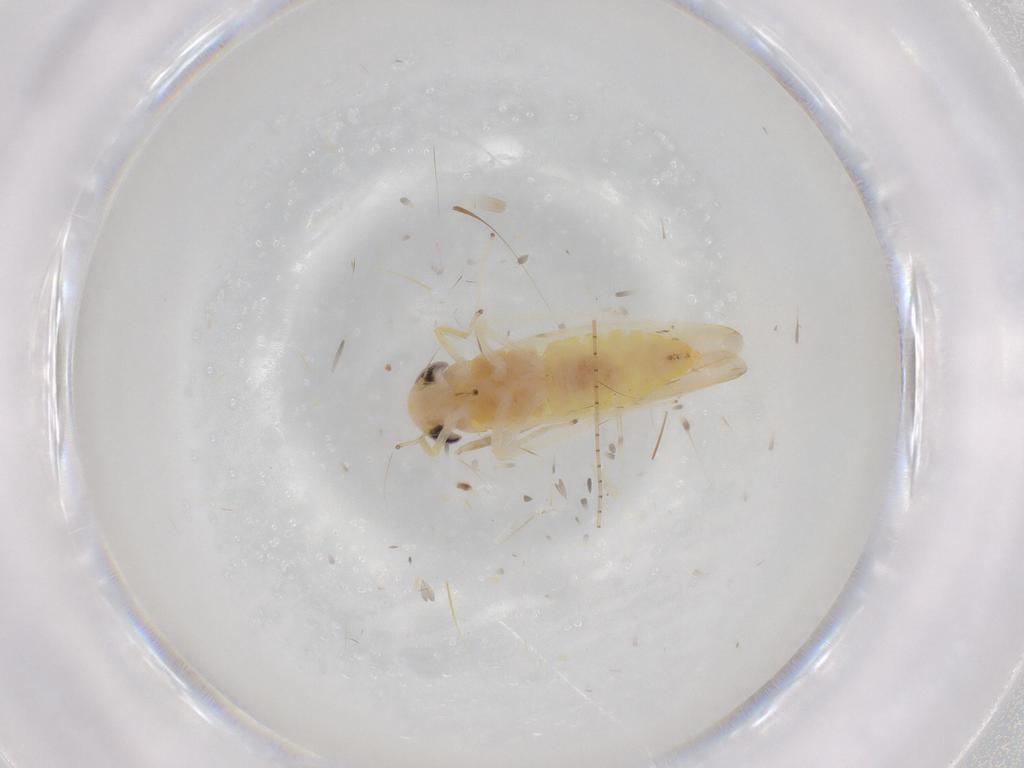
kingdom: Animalia
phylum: Arthropoda
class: Insecta
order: Hemiptera
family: Cicadellidae
